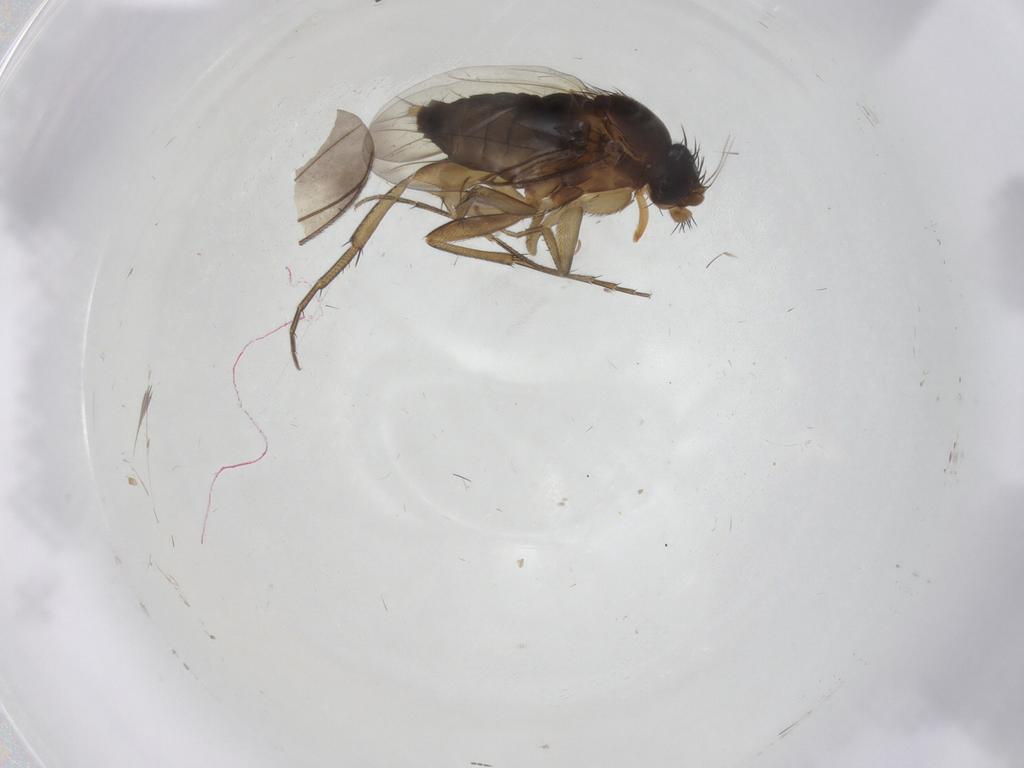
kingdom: Animalia
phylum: Arthropoda
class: Insecta
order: Diptera
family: Phoridae
